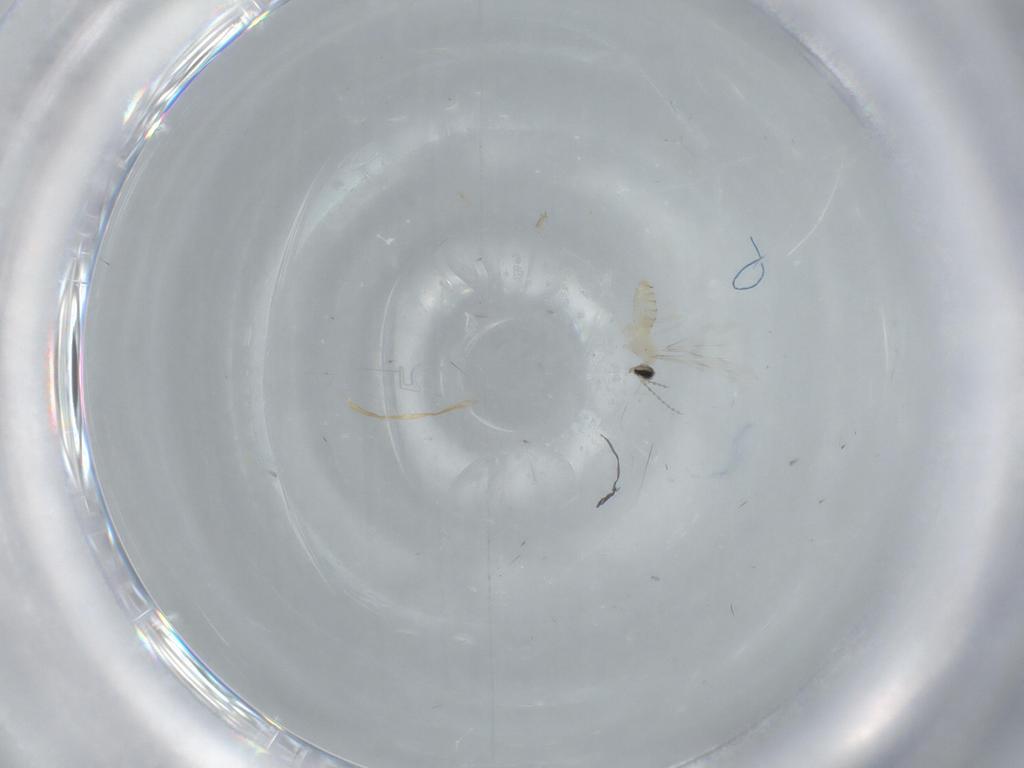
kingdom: Animalia
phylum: Arthropoda
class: Insecta
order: Diptera
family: Cecidomyiidae
